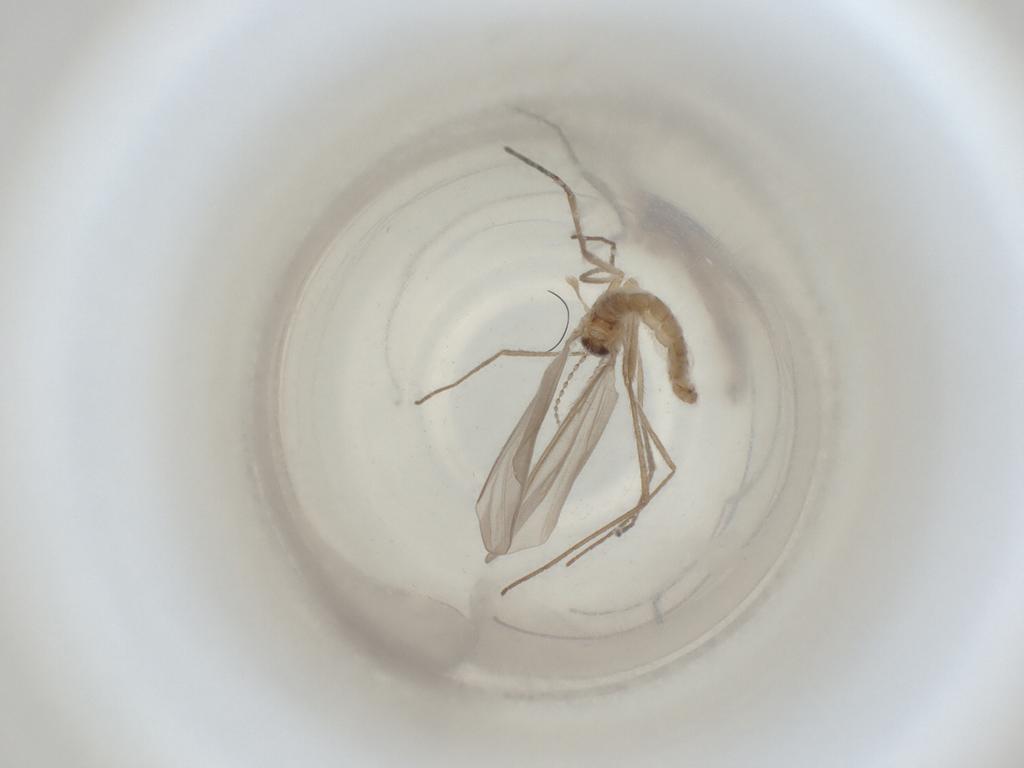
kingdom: Animalia
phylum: Arthropoda
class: Insecta
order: Diptera
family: Cecidomyiidae
